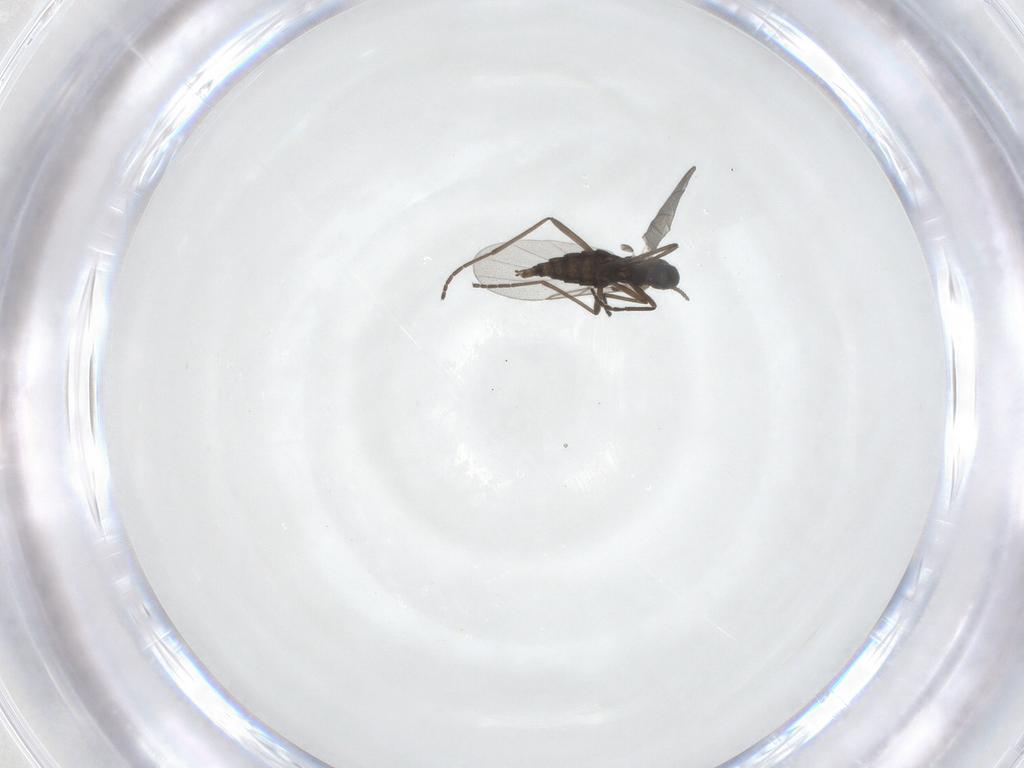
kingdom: Animalia
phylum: Arthropoda
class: Insecta
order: Diptera
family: Cecidomyiidae
